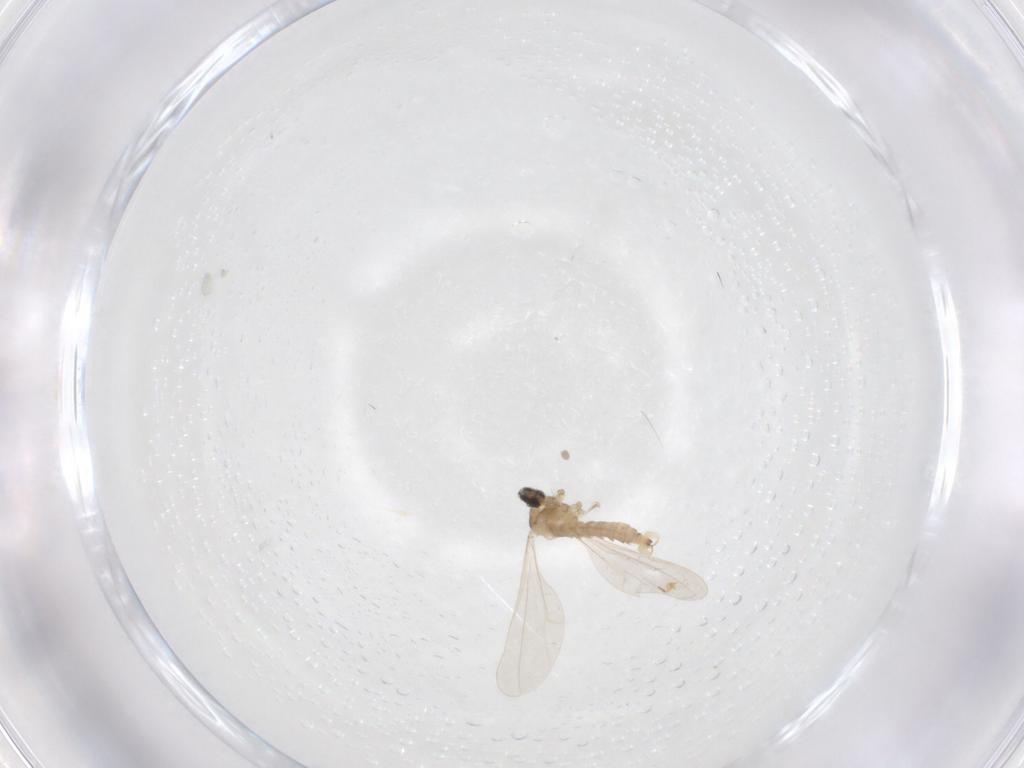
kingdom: Animalia
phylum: Arthropoda
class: Insecta
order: Diptera
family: Cecidomyiidae
